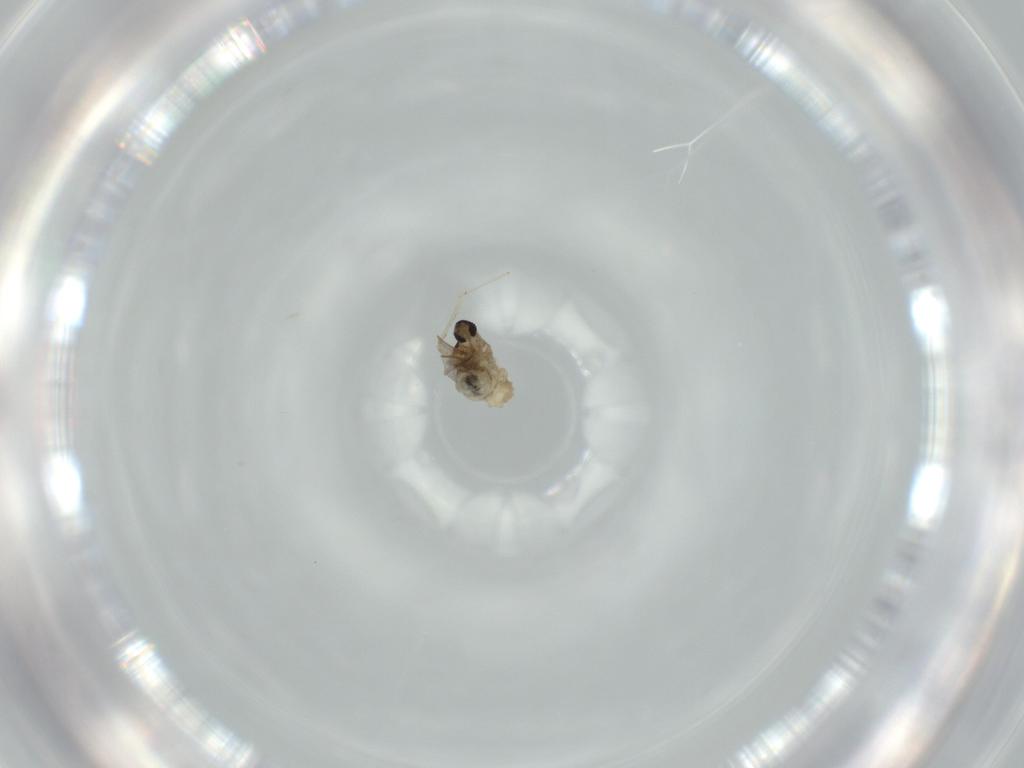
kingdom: Animalia
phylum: Arthropoda
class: Insecta
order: Diptera
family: Cecidomyiidae
